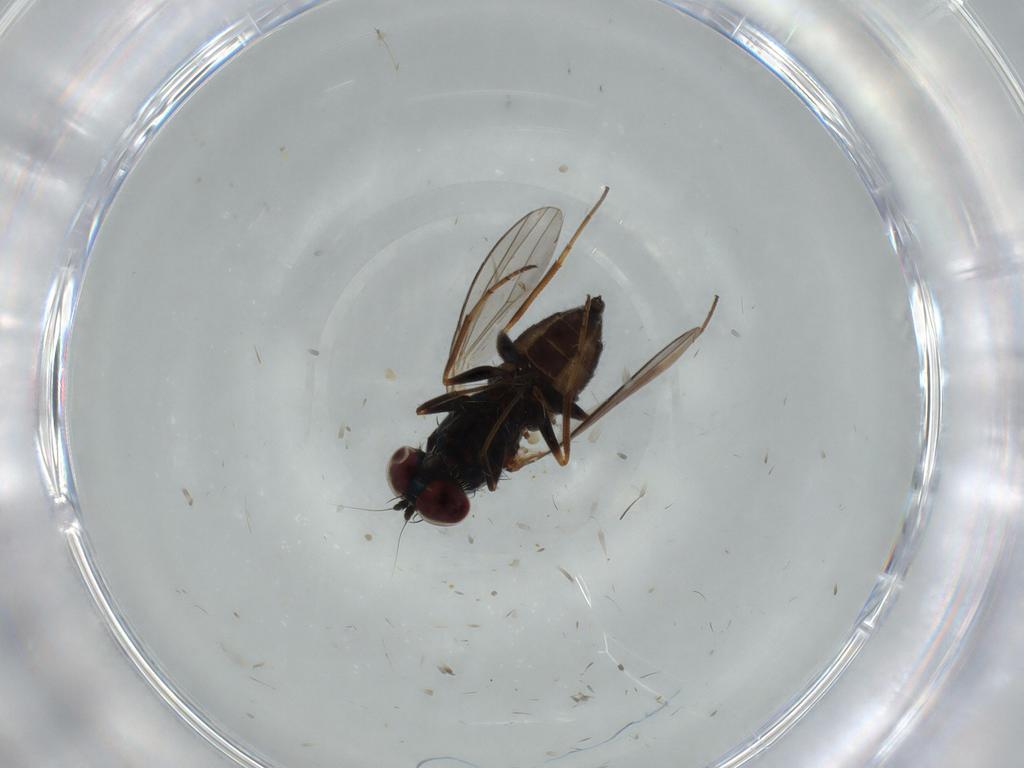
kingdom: Animalia
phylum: Arthropoda
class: Insecta
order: Diptera
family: Dolichopodidae
